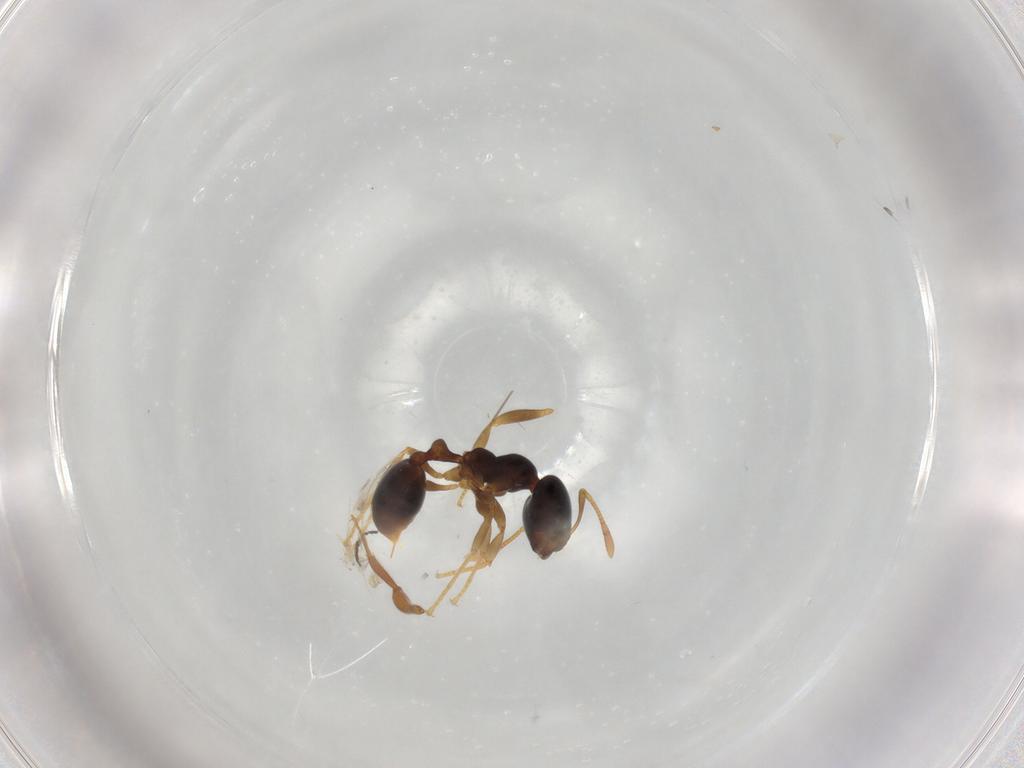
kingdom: Animalia
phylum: Arthropoda
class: Insecta
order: Hymenoptera
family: Formicidae
